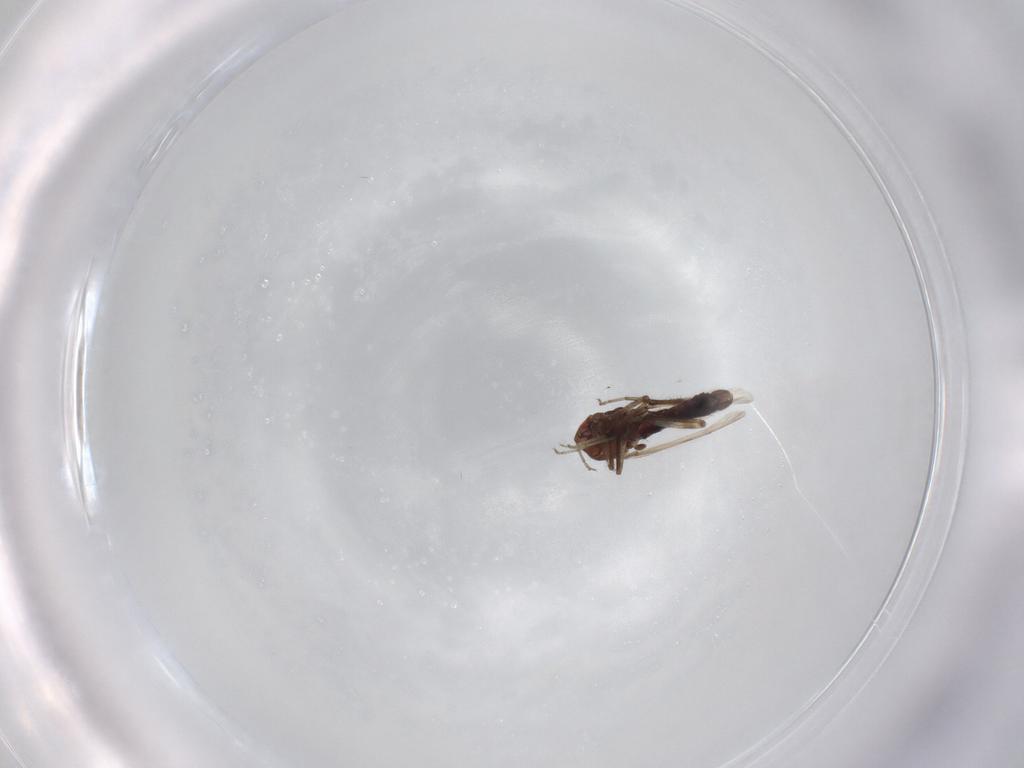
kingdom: Animalia
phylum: Arthropoda
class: Insecta
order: Diptera
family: Ceratopogonidae
